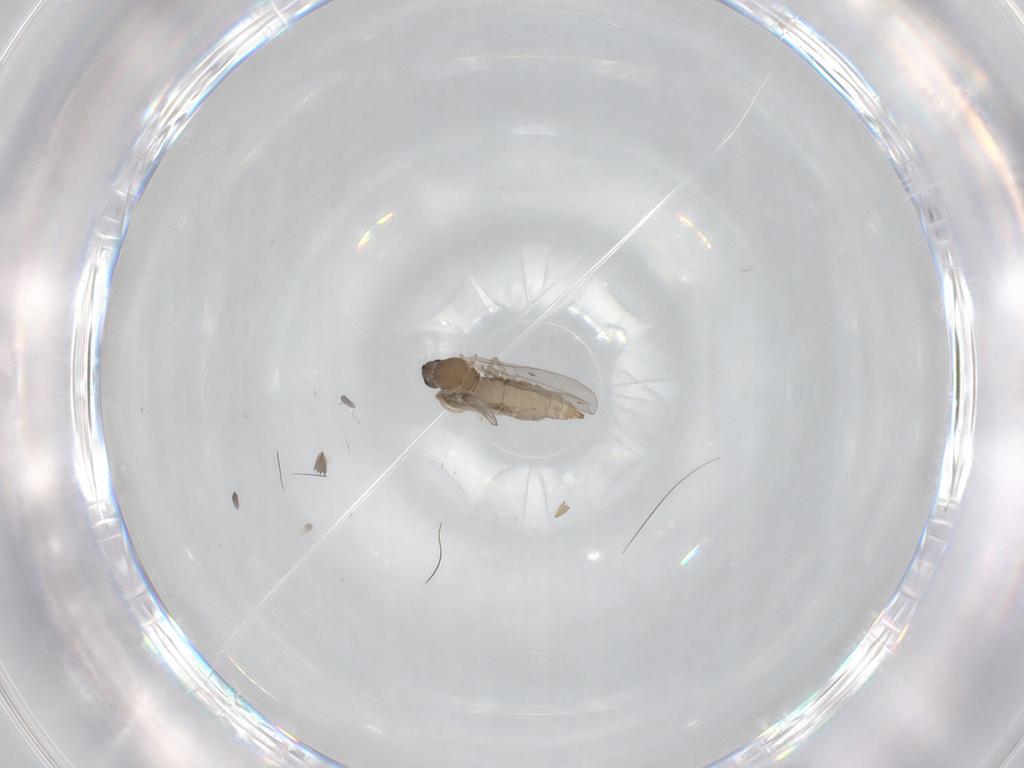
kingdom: Animalia
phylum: Arthropoda
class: Insecta
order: Diptera
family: Cecidomyiidae
